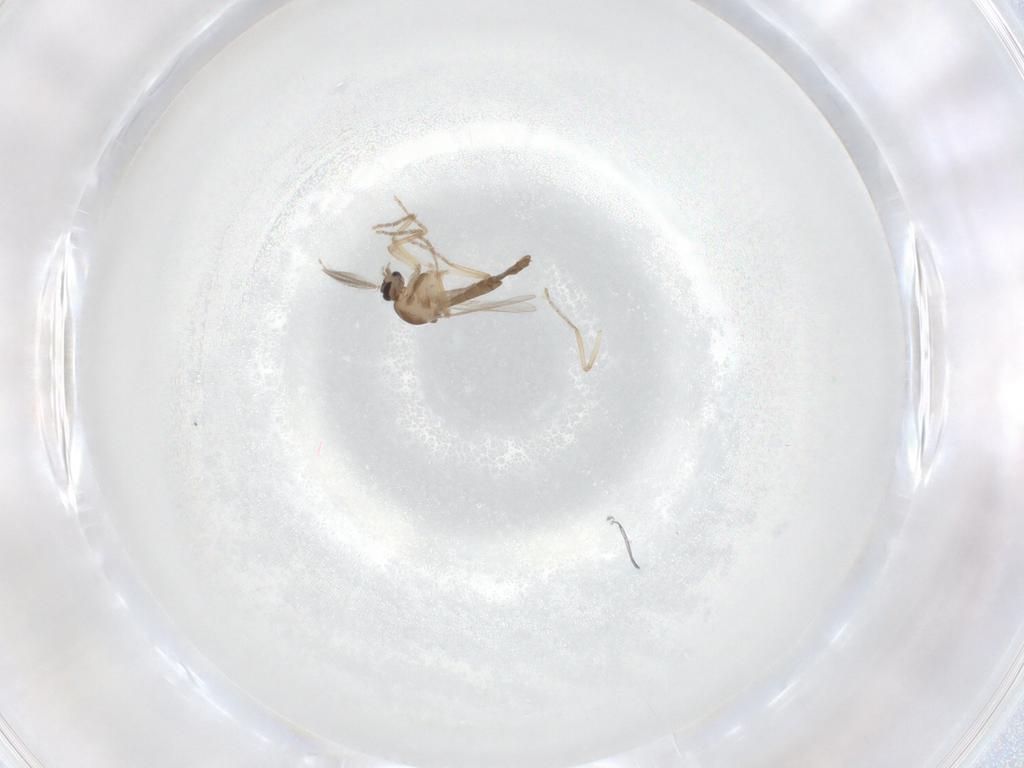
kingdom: Animalia
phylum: Arthropoda
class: Insecta
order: Diptera
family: Ceratopogonidae
